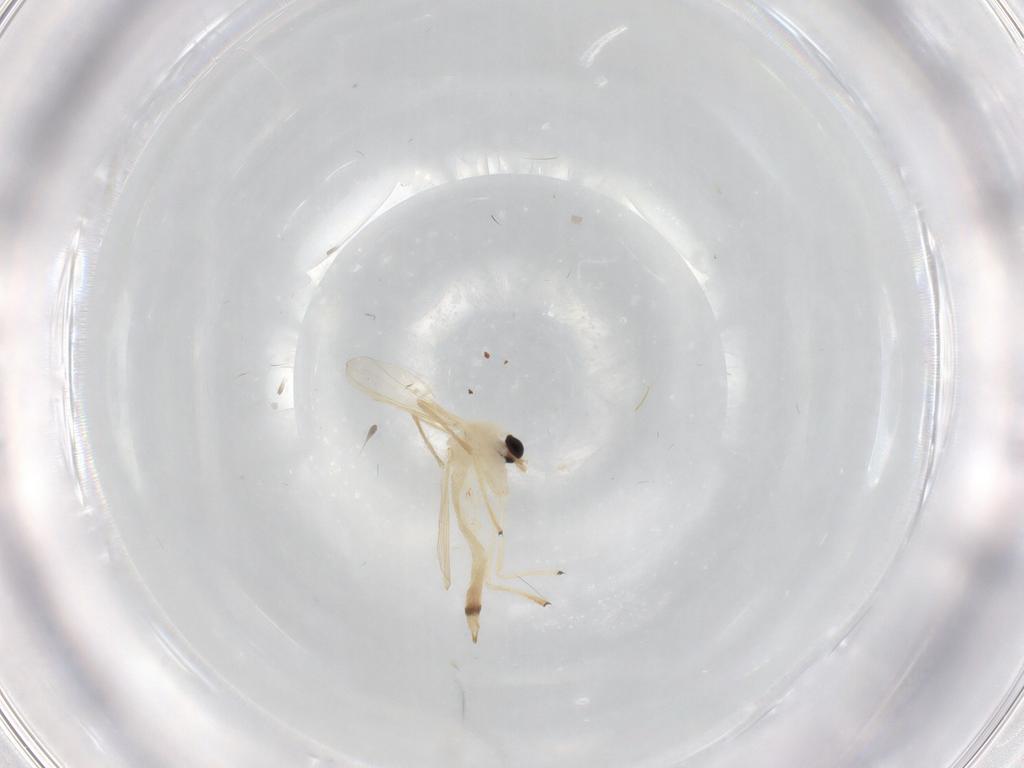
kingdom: Animalia
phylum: Arthropoda
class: Insecta
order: Diptera
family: Chironomidae
